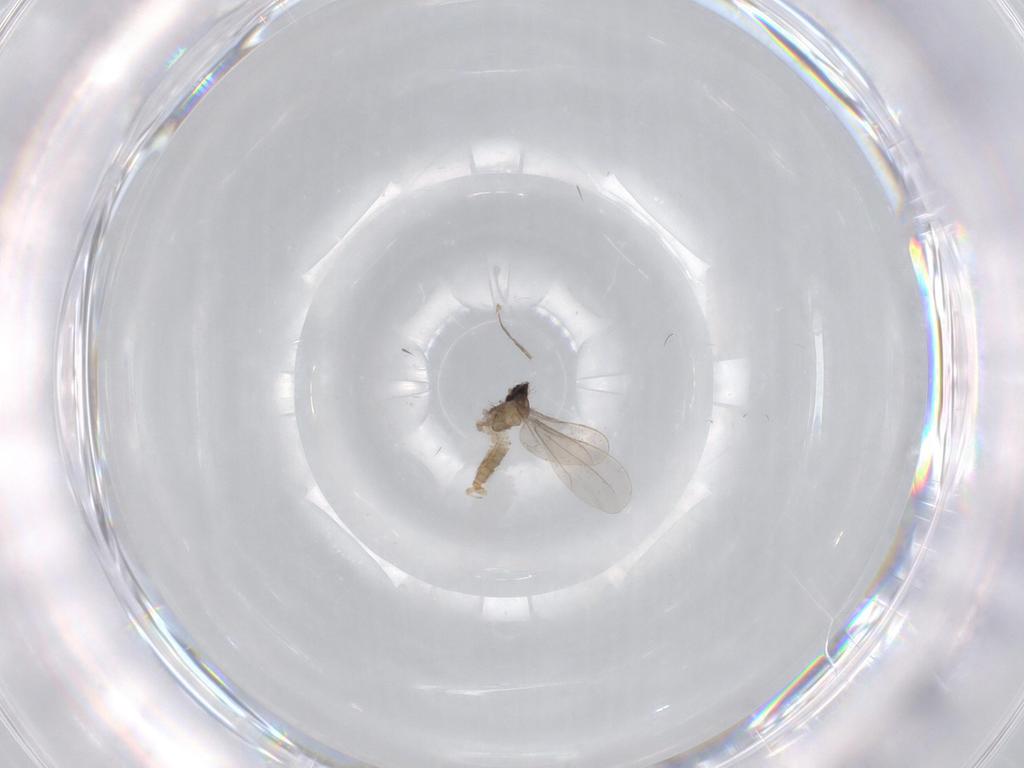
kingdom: Animalia
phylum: Arthropoda
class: Insecta
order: Diptera
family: Cecidomyiidae
